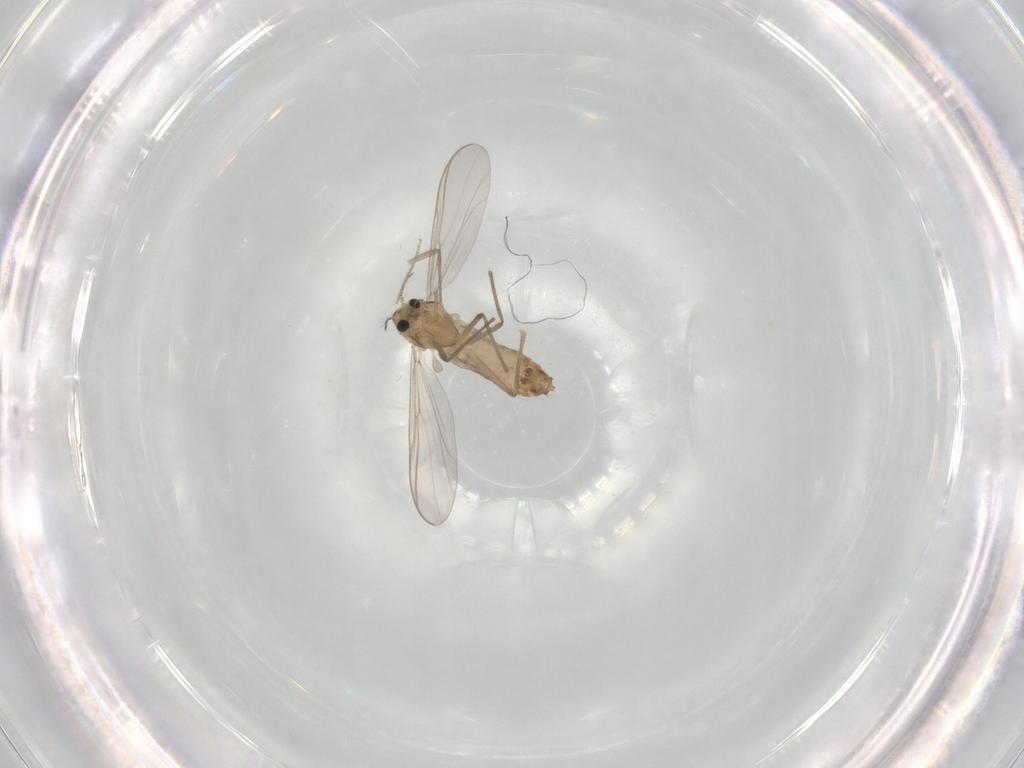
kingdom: Animalia
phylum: Arthropoda
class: Insecta
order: Diptera
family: Chironomidae
